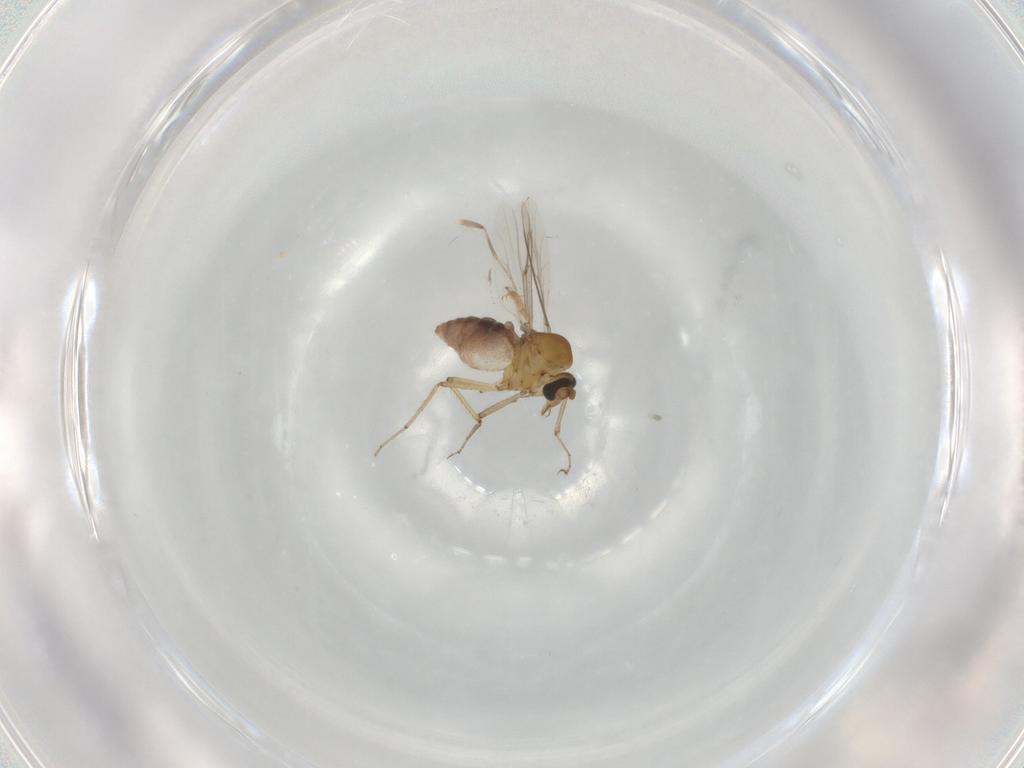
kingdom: Animalia
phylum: Arthropoda
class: Insecta
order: Diptera
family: Chironomidae
